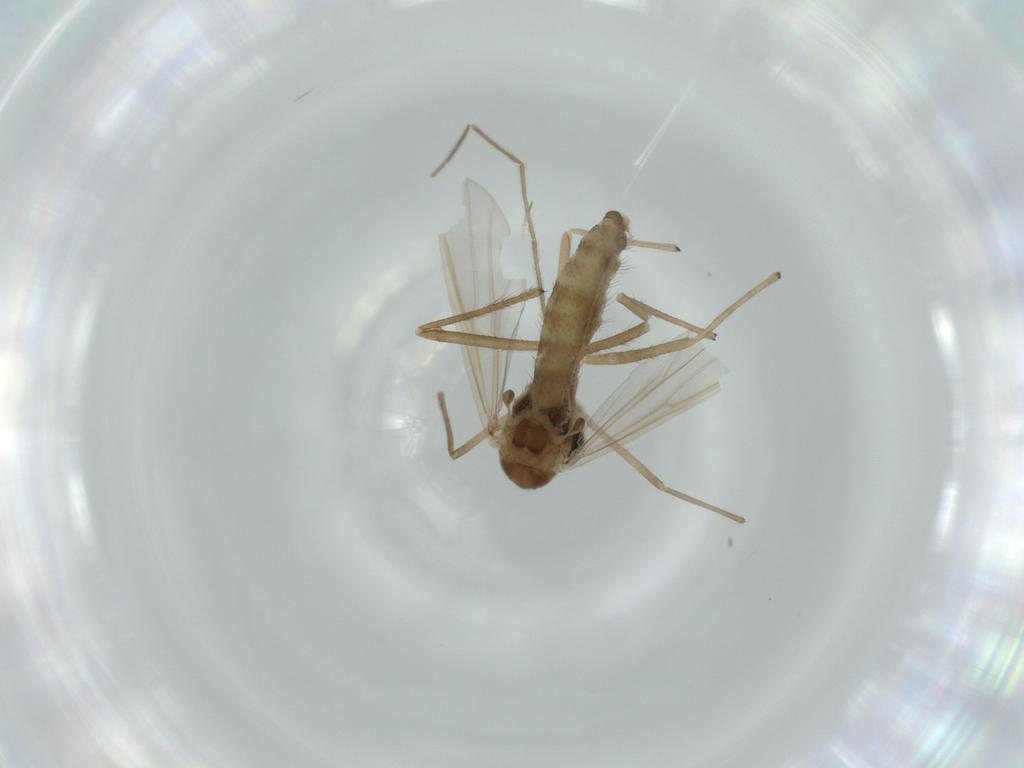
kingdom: Animalia
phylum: Arthropoda
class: Insecta
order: Diptera
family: Chironomidae
